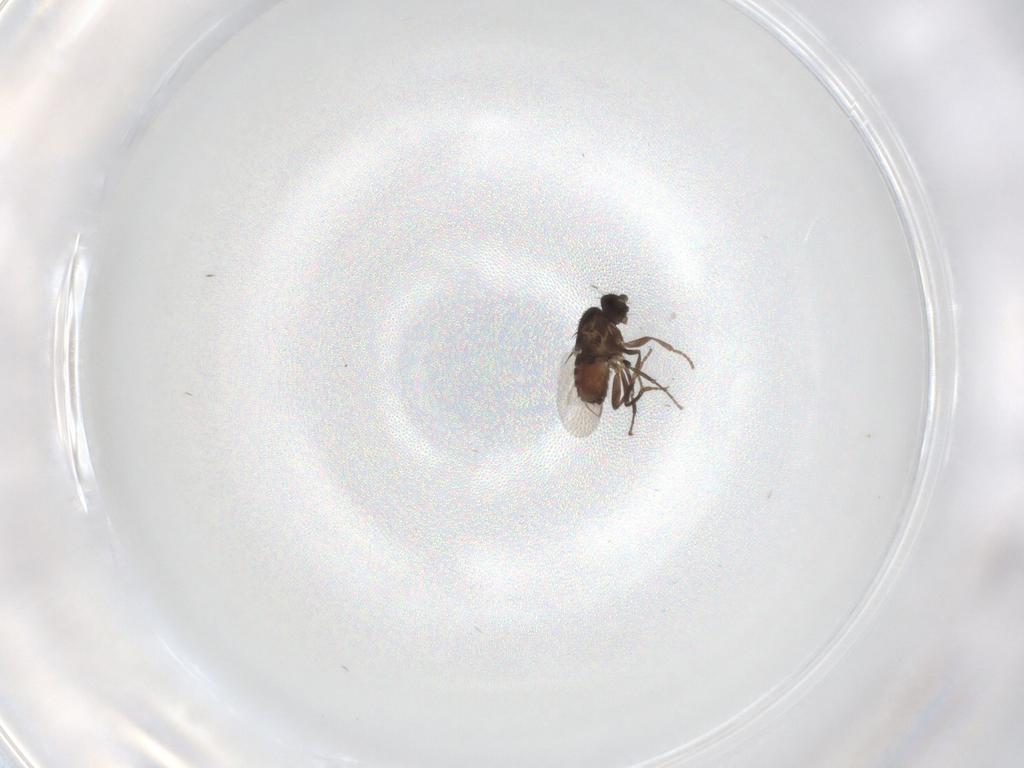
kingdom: Animalia
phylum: Arthropoda
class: Insecta
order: Diptera
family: Sphaeroceridae
